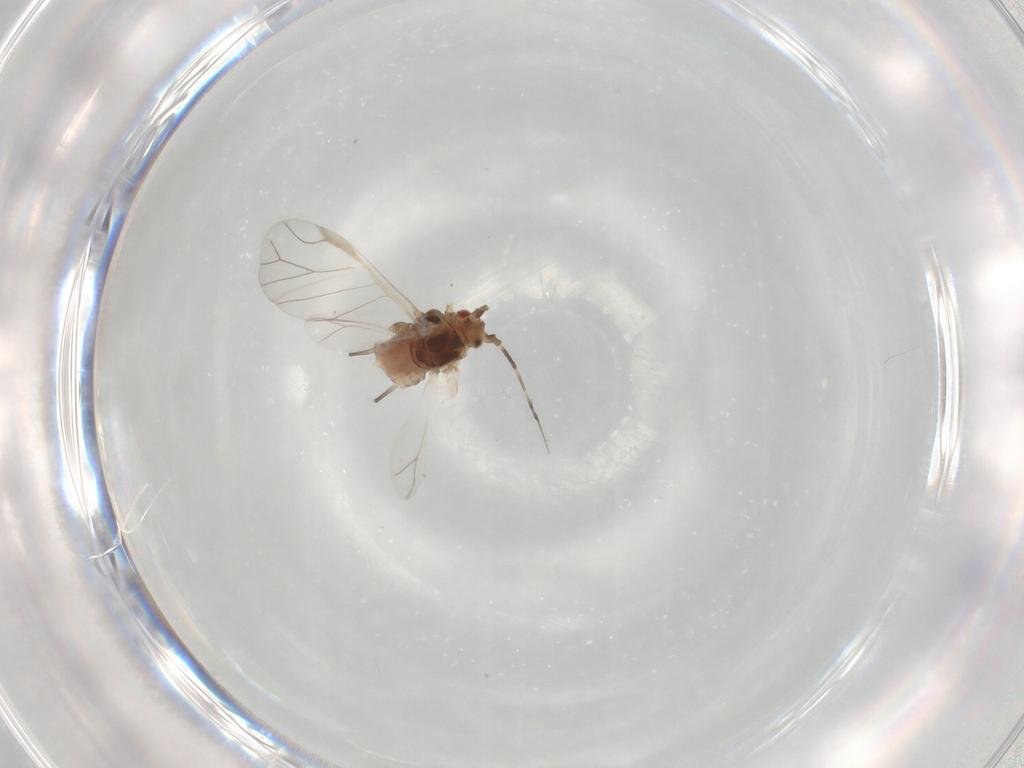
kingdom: Animalia
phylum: Arthropoda
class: Insecta
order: Hemiptera
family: Aphididae
